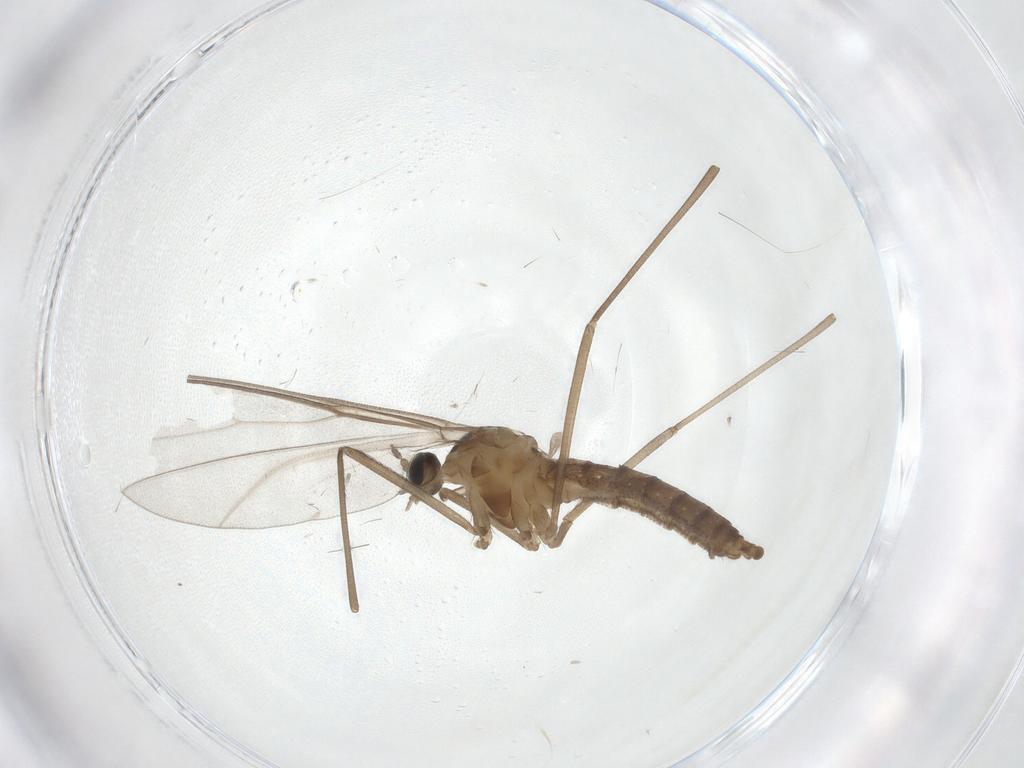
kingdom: Animalia
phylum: Arthropoda
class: Insecta
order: Diptera
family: Cecidomyiidae
